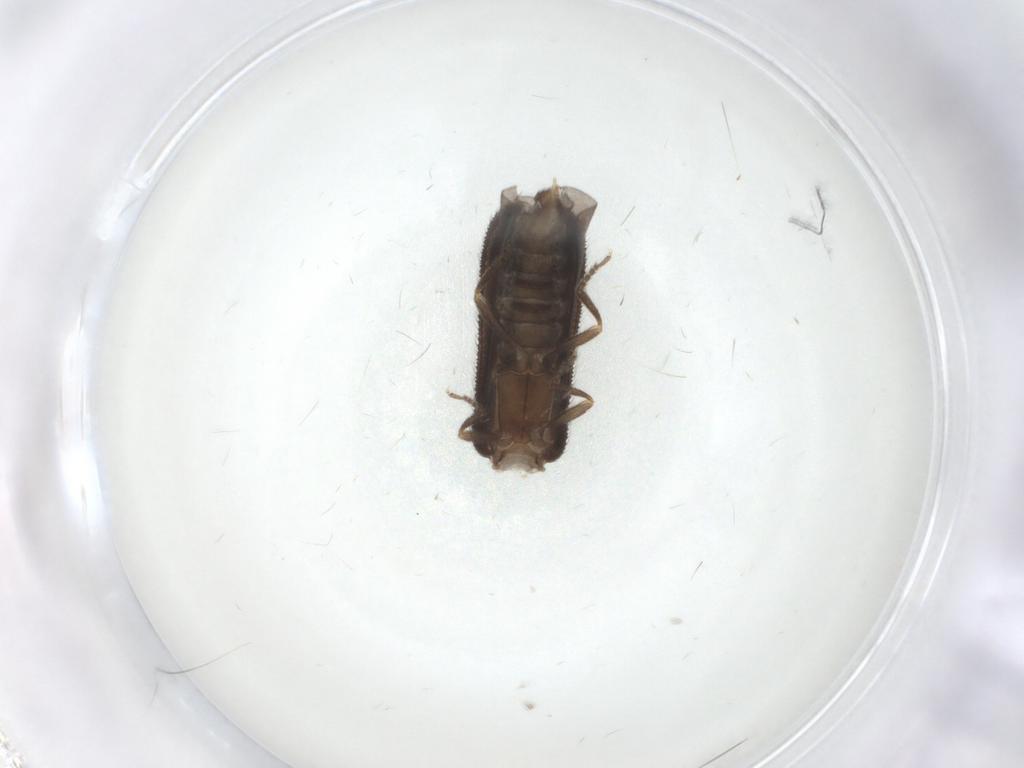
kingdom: Animalia
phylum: Arthropoda
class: Insecta
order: Coleoptera
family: Lycidae
